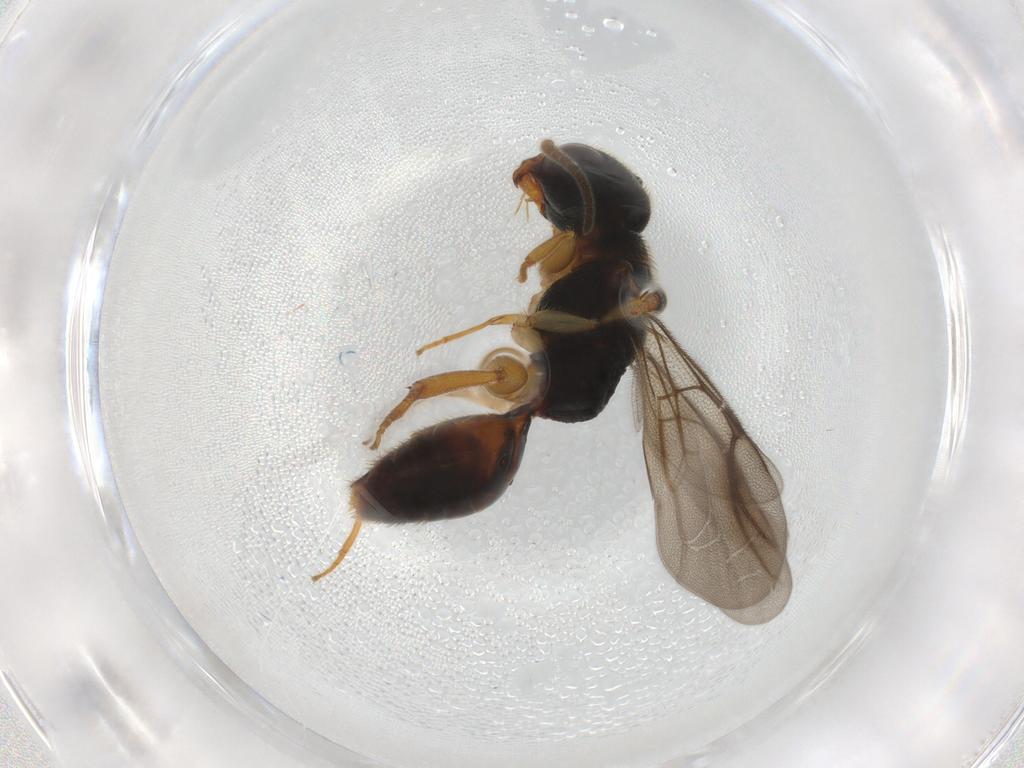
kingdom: Animalia
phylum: Arthropoda
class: Insecta
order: Hymenoptera
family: Bethylidae
